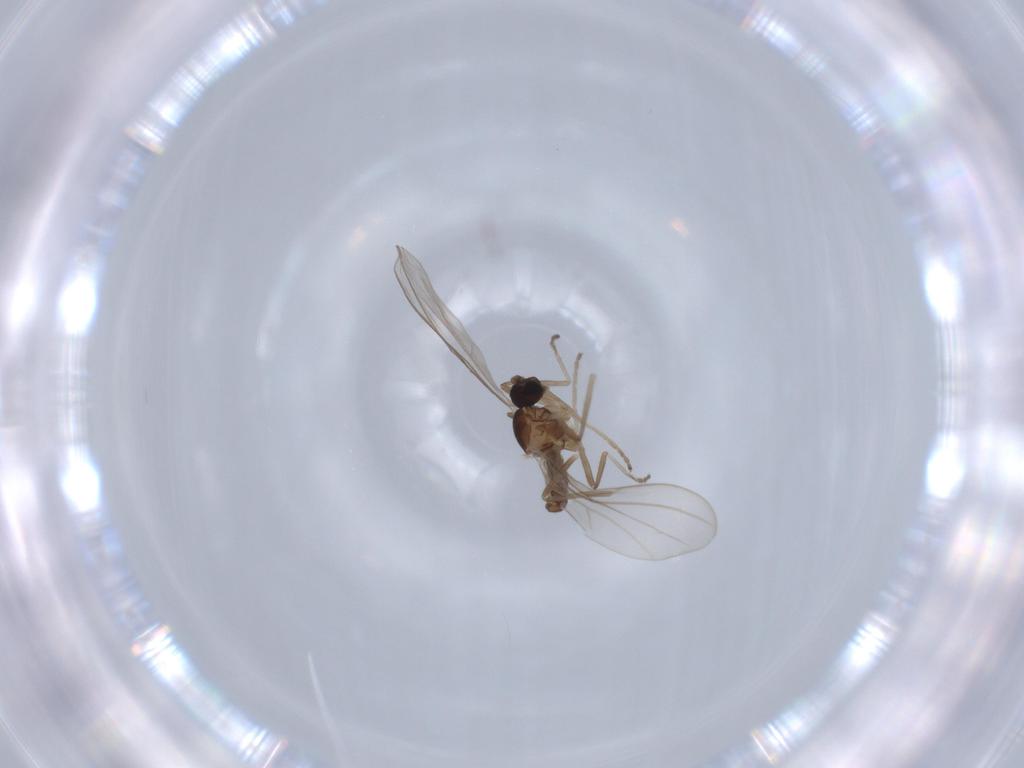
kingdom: Animalia
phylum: Arthropoda
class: Insecta
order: Diptera
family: Cecidomyiidae
